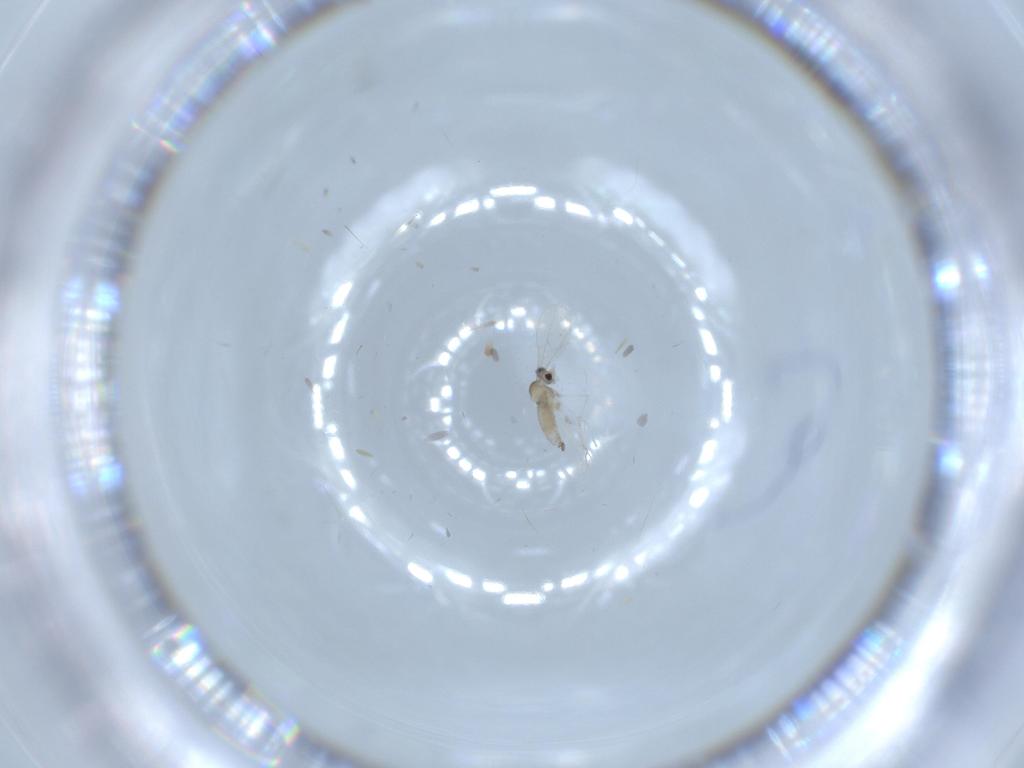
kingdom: Animalia
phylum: Arthropoda
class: Insecta
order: Diptera
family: Cecidomyiidae
